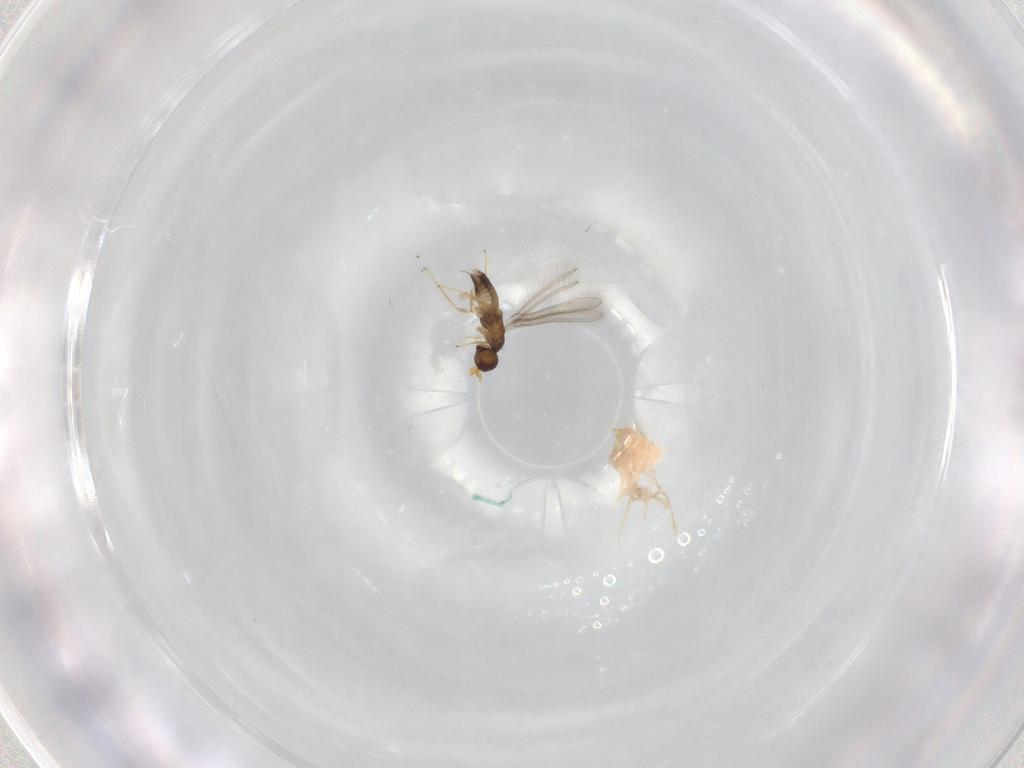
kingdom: Animalia
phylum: Arthropoda
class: Insecta
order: Hymenoptera
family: Mymaridae
